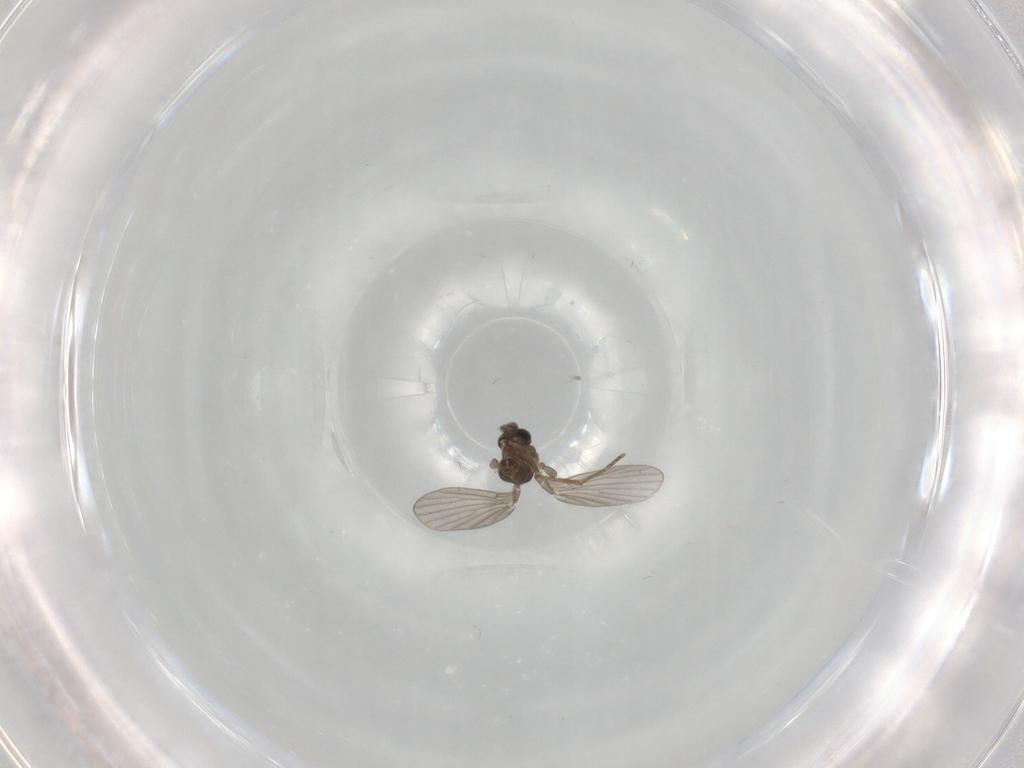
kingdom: Animalia
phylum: Arthropoda
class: Insecta
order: Diptera
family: Psychodidae
